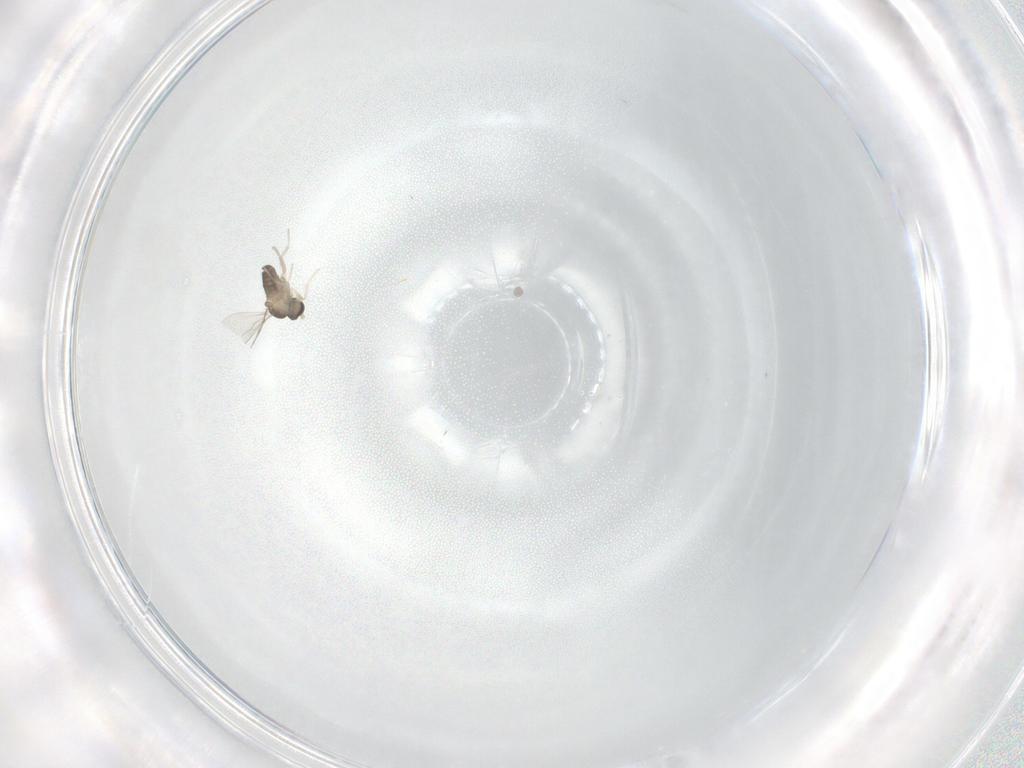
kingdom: Animalia
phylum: Arthropoda
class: Insecta
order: Diptera
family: Cecidomyiidae
